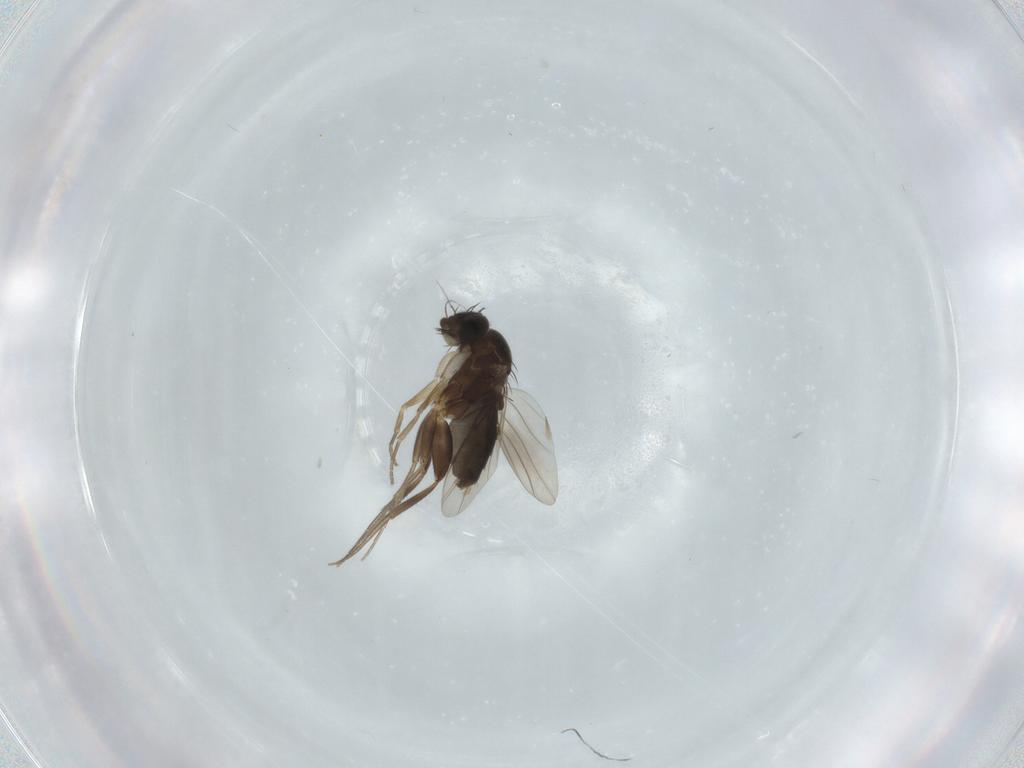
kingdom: Animalia
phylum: Arthropoda
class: Insecta
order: Diptera
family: Phoridae
